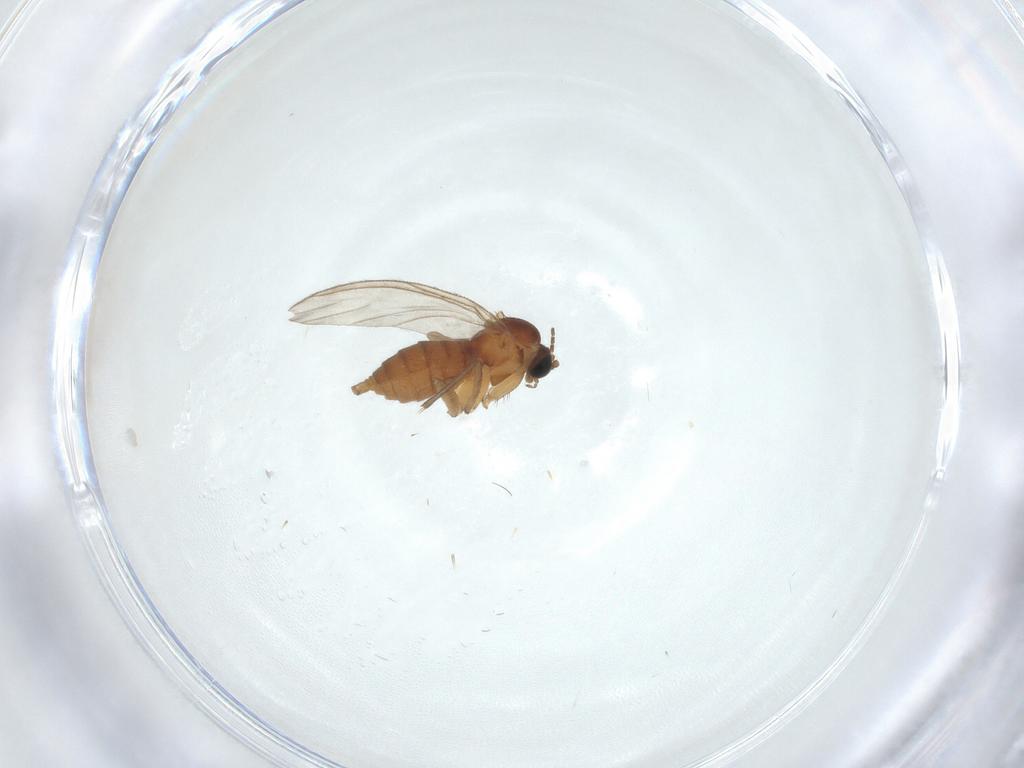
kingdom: Animalia
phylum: Arthropoda
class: Insecta
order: Diptera
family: Sciaridae
